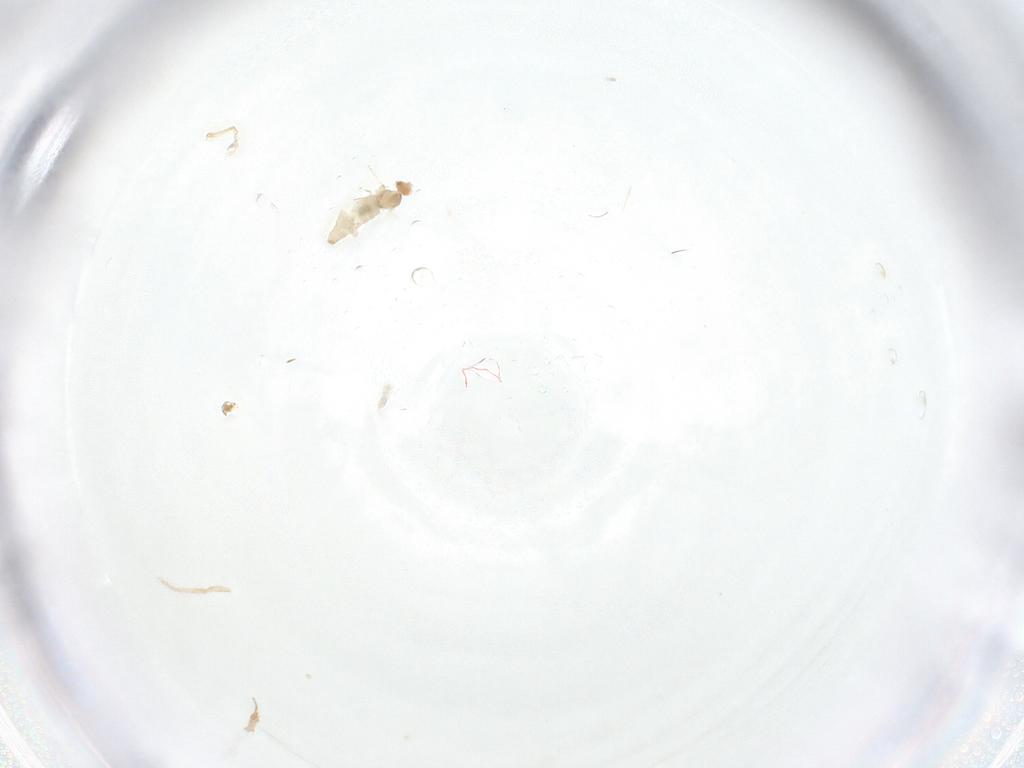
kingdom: Animalia
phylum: Arthropoda
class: Insecta
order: Diptera
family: Cecidomyiidae
